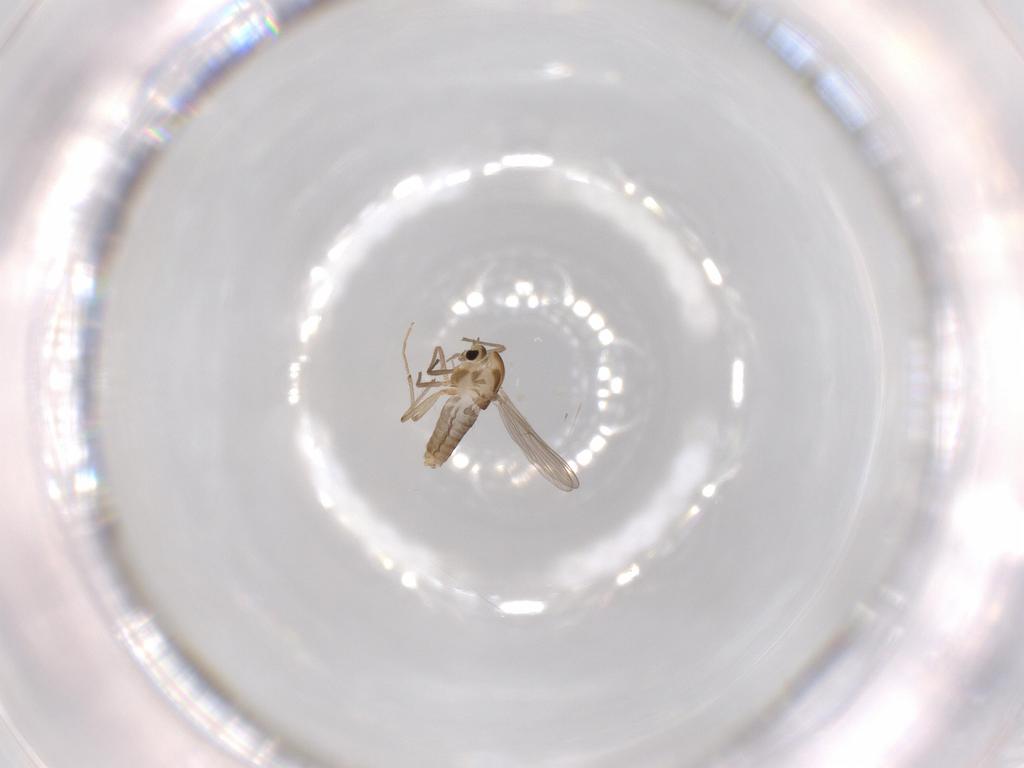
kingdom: Animalia
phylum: Arthropoda
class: Insecta
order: Diptera
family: Chironomidae
